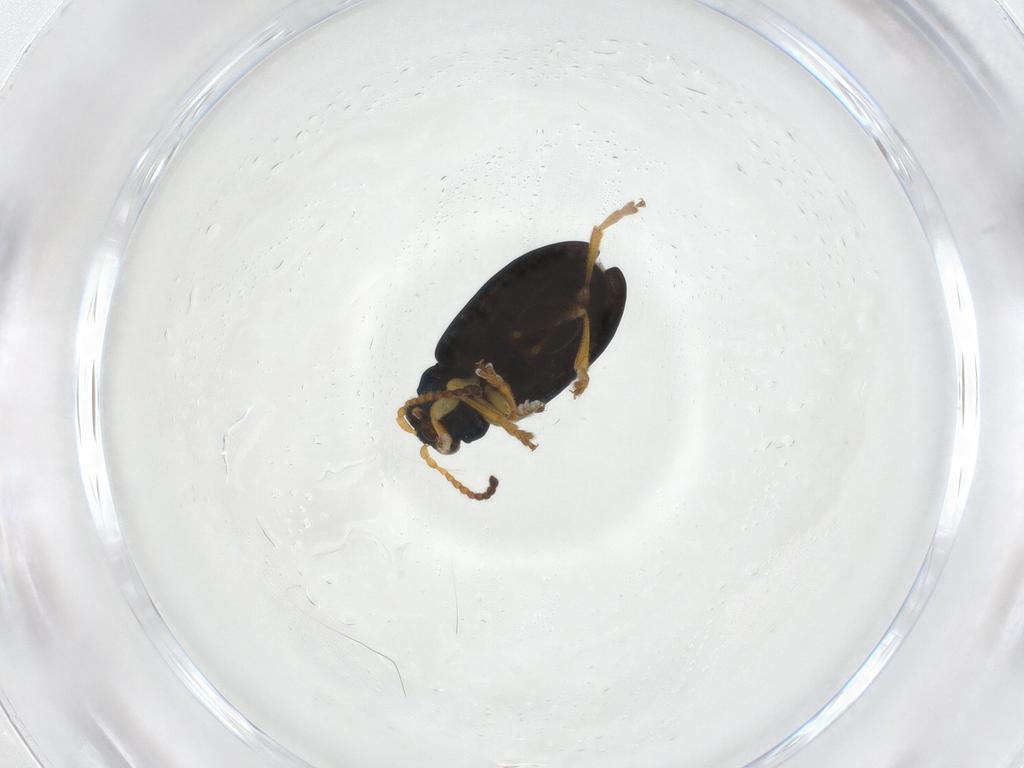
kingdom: Animalia
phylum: Arthropoda
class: Insecta
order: Coleoptera
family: Chrysomelidae
